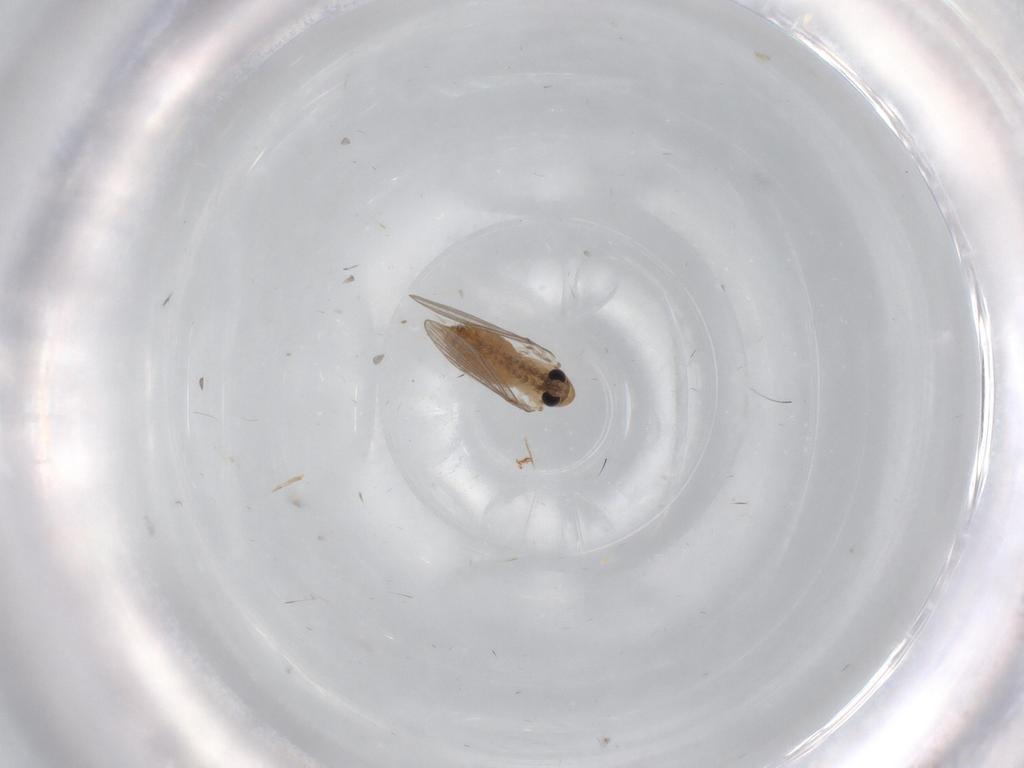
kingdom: Animalia
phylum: Arthropoda
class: Insecta
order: Diptera
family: Psychodidae
